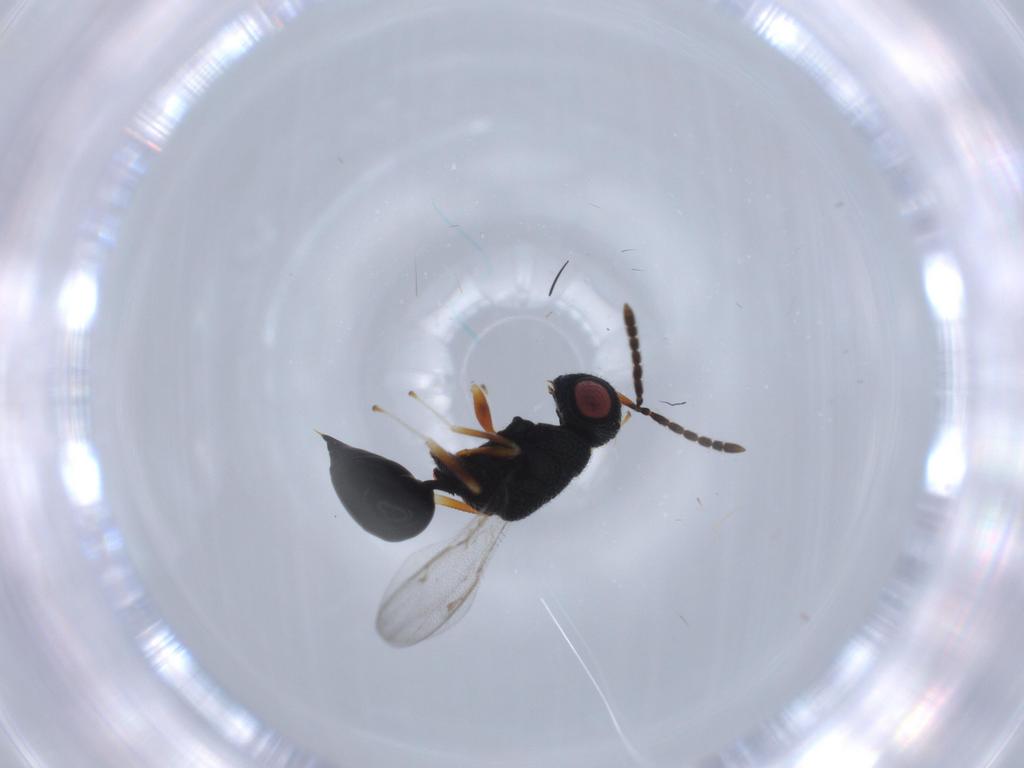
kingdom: Animalia
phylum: Arthropoda
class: Insecta
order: Hymenoptera
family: Eurytomidae
